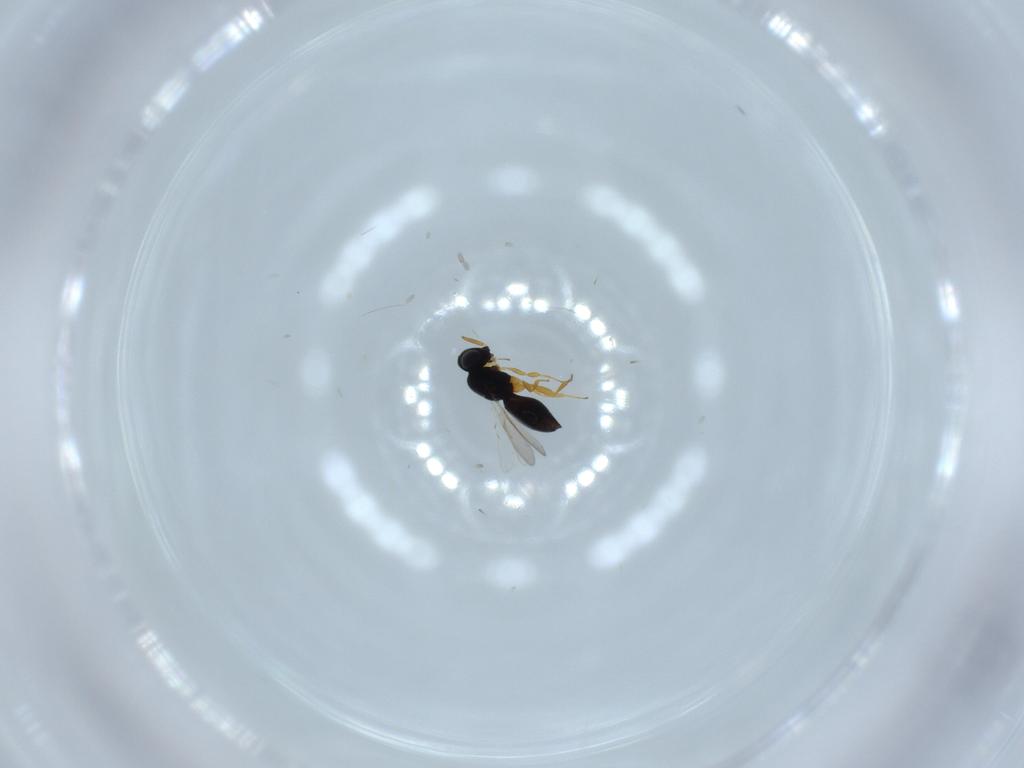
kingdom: Animalia
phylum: Arthropoda
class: Insecta
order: Hymenoptera
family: Scelionidae
